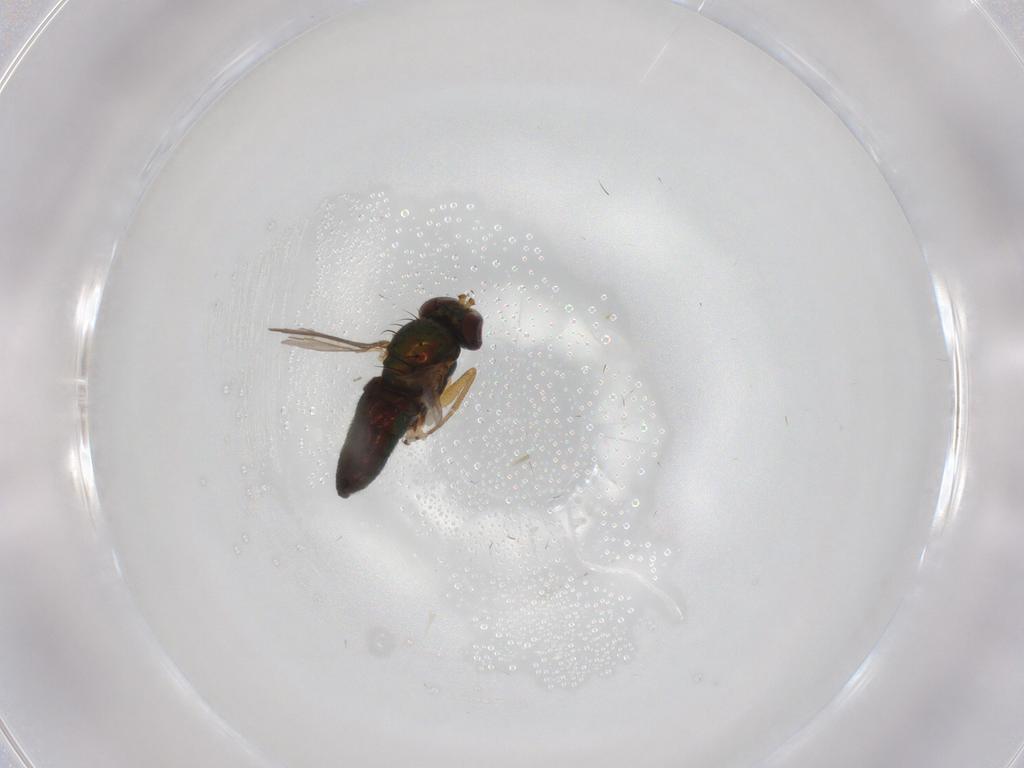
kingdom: Animalia
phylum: Arthropoda
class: Insecta
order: Diptera
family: Dolichopodidae
